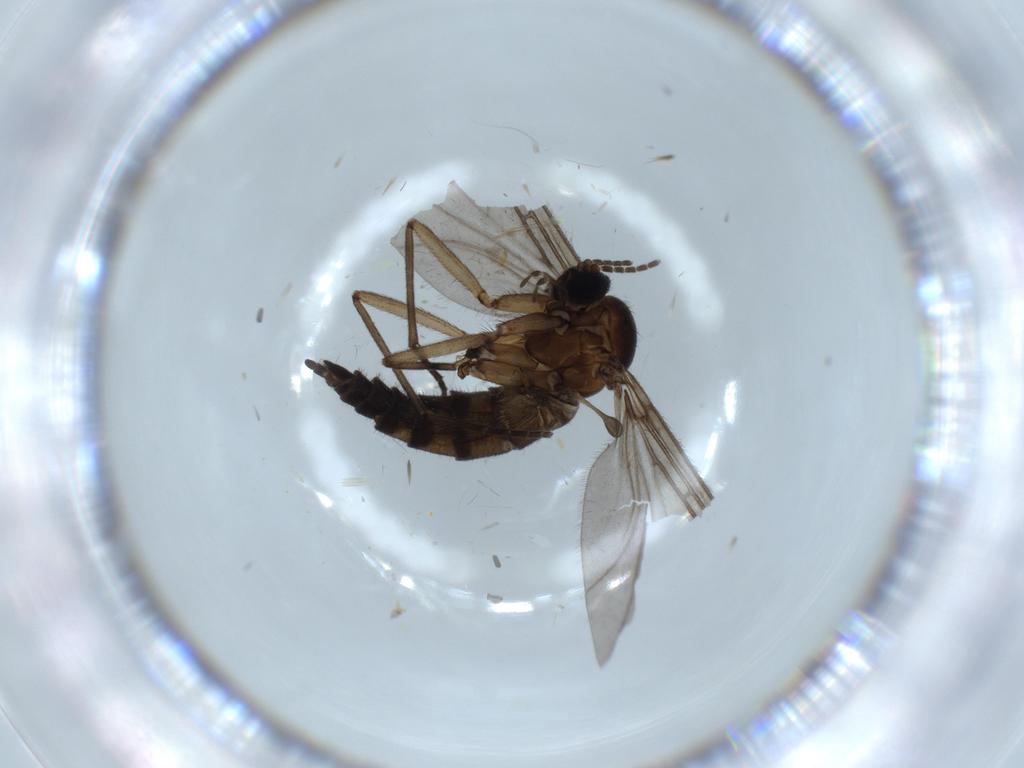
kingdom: Animalia
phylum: Arthropoda
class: Insecta
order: Diptera
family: Sciaridae
